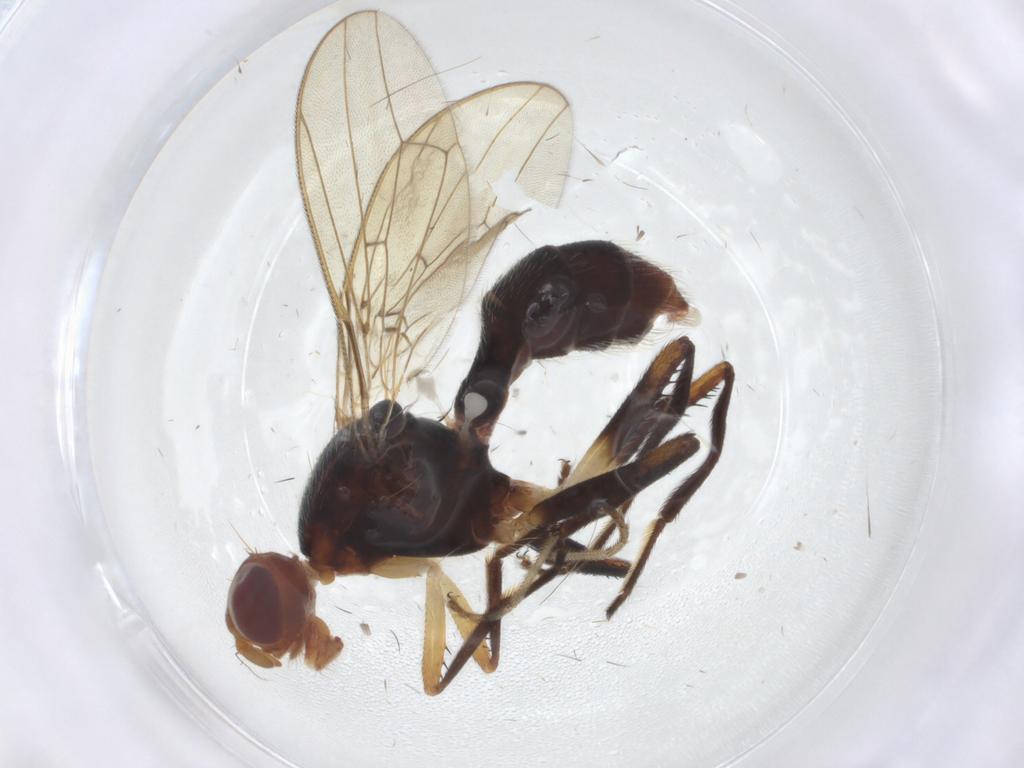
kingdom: Animalia
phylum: Arthropoda
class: Insecta
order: Diptera
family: Richardiidae
